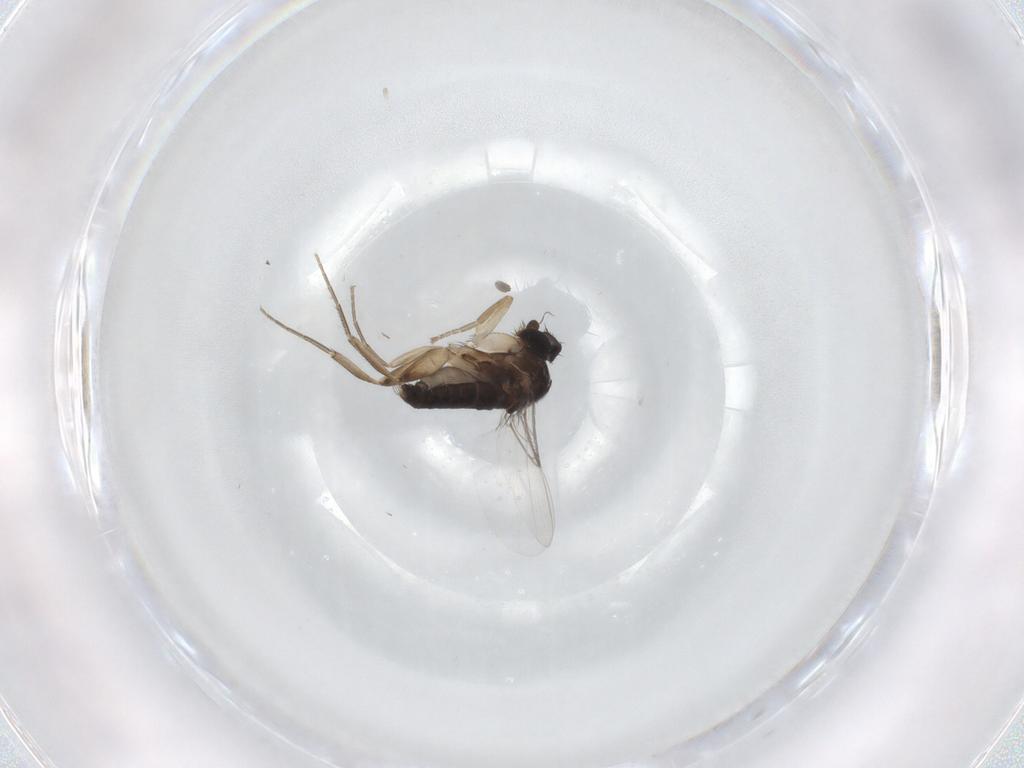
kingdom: Animalia
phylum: Arthropoda
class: Insecta
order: Diptera
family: Phoridae
